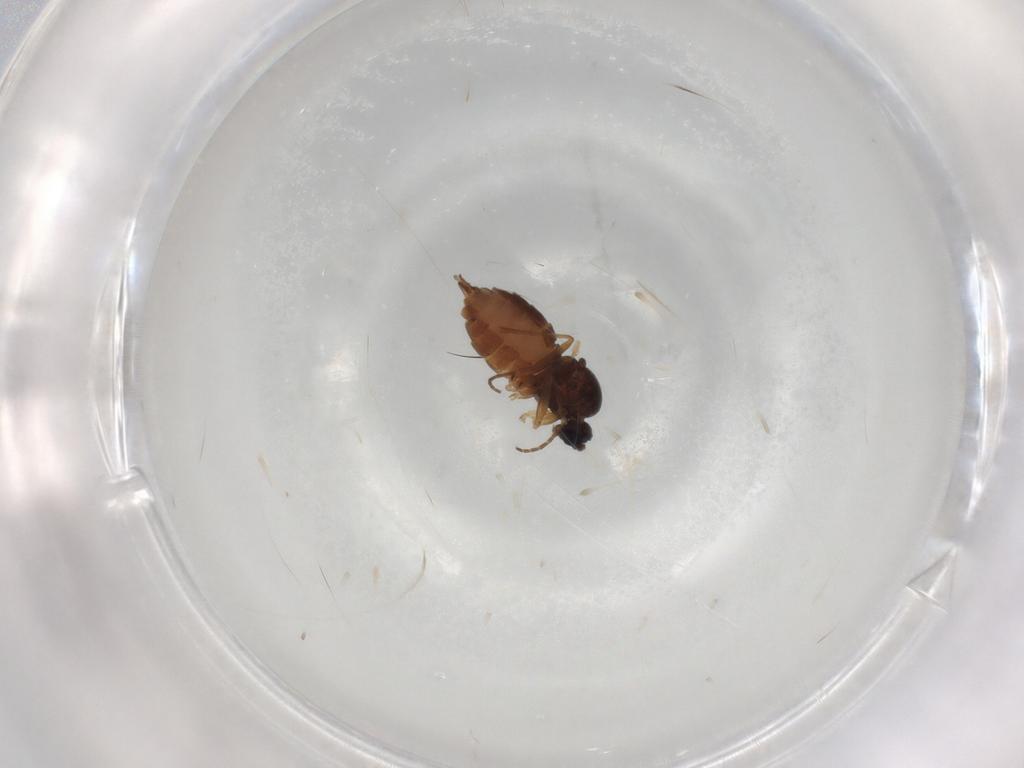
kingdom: Animalia
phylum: Arthropoda
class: Insecta
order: Diptera
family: Sciaridae
